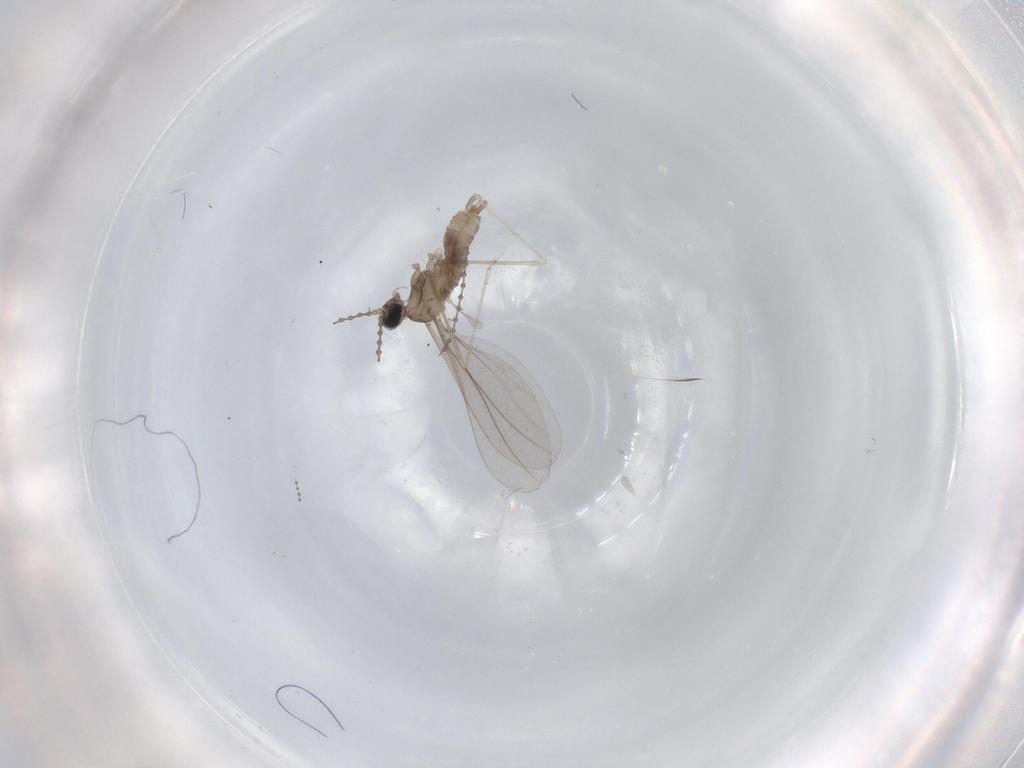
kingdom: Animalia
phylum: Arthropoda
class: Insecta
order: Diptera
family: Cecidomyiidae
